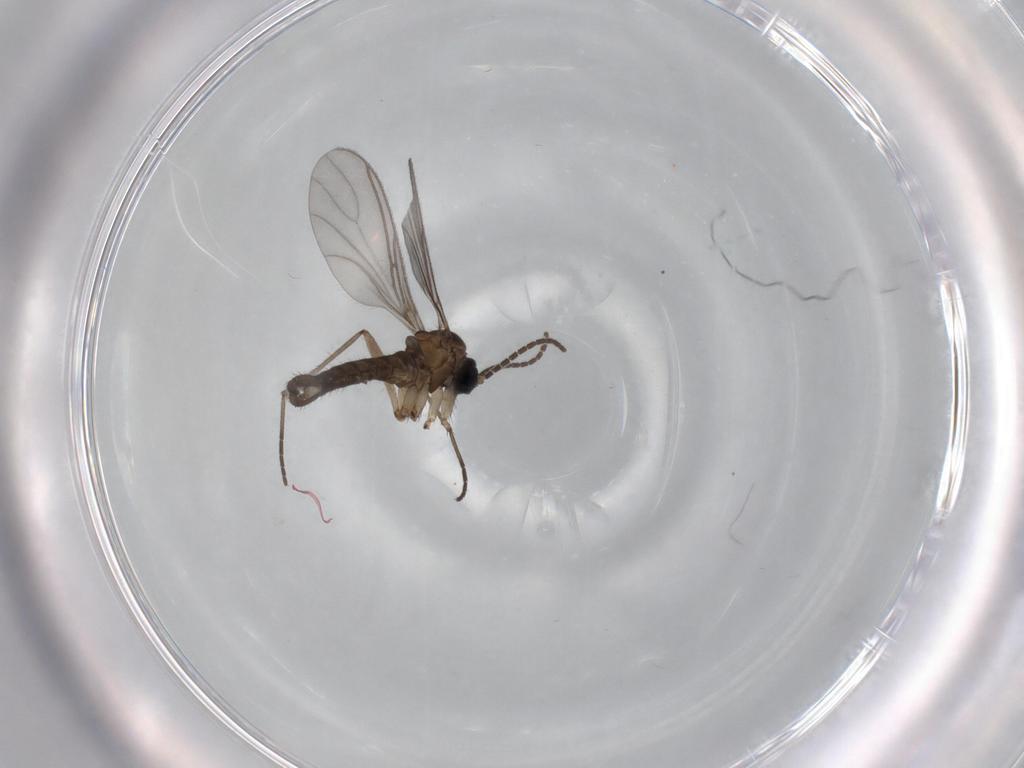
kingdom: Animalia
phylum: Arthropoda
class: Insecta
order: Diptera
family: Sciaridae
